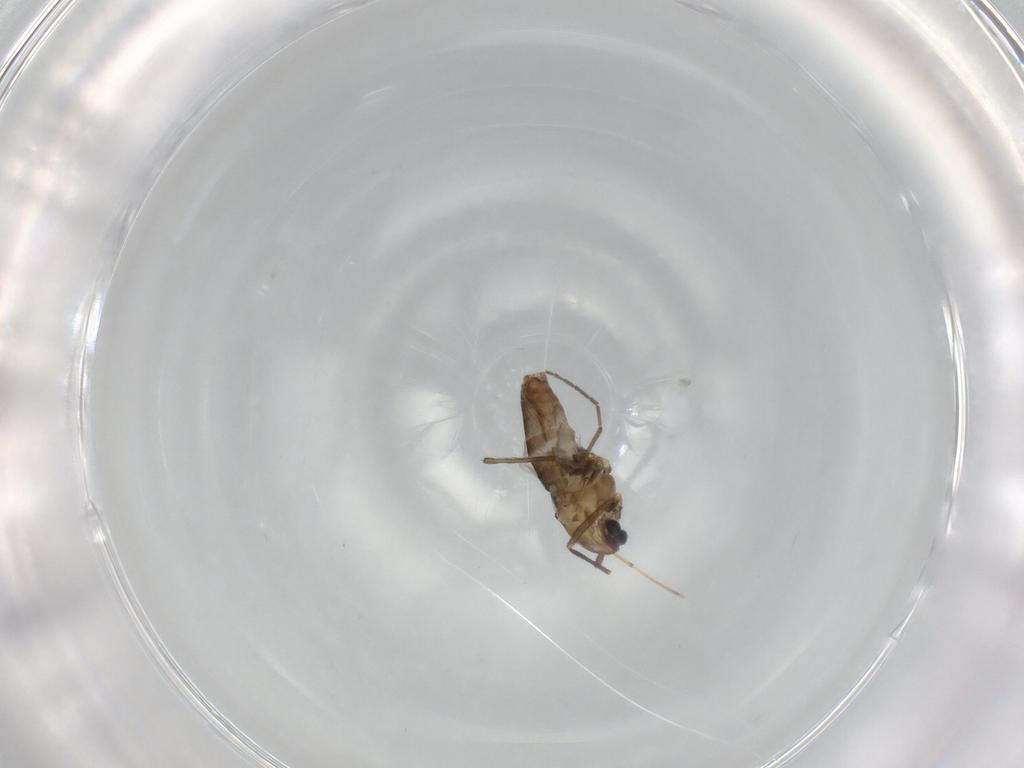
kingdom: Animalia
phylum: Arthropoda
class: Insecta
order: Diptera
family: Chironomidae
